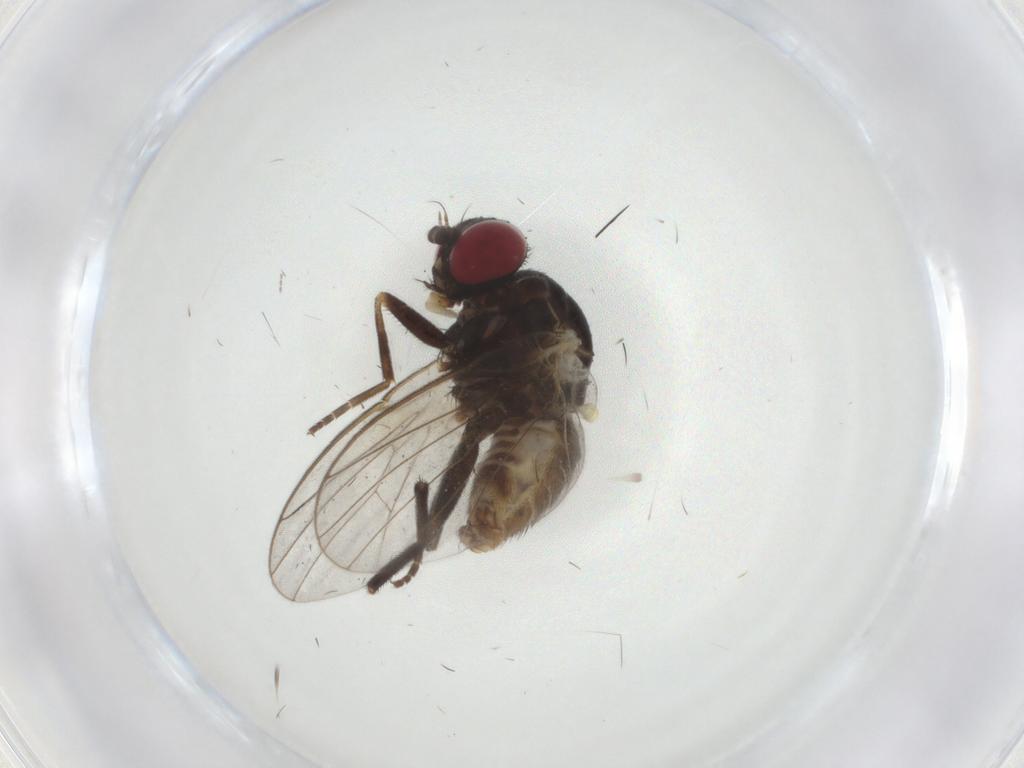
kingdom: Animalia
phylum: Arthropoda
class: Insecta
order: Diptera
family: Agromyzidae
